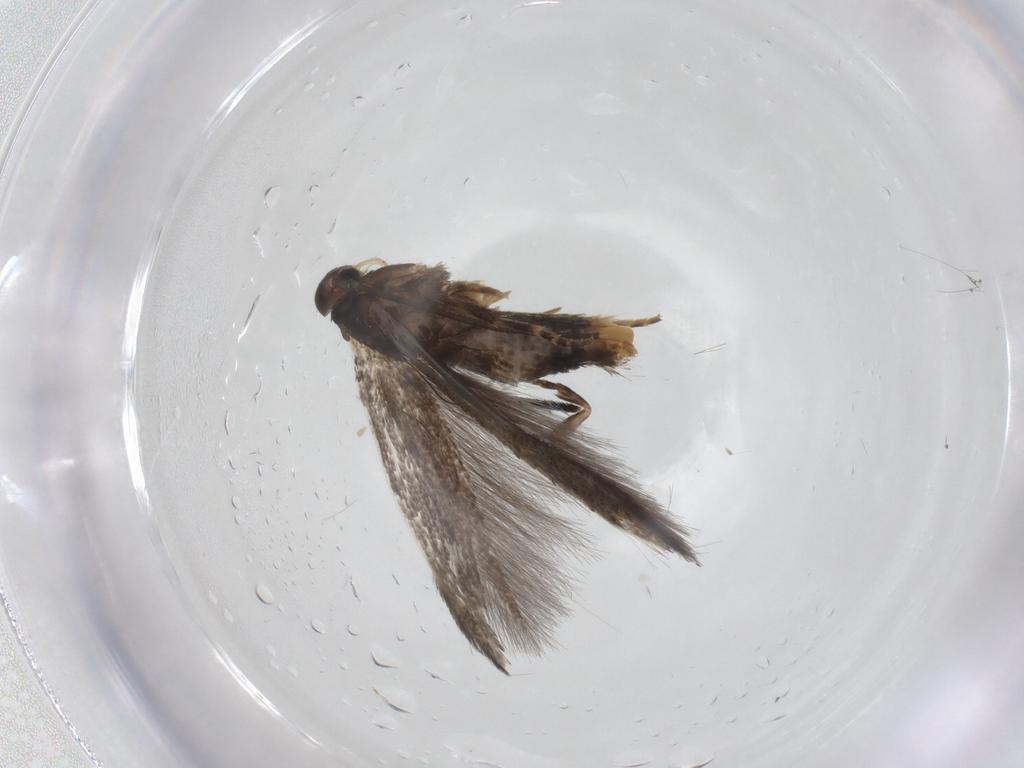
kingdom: Animalia
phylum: Arthropoda
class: Insecta
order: Lepidoptera
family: Elachistidae
